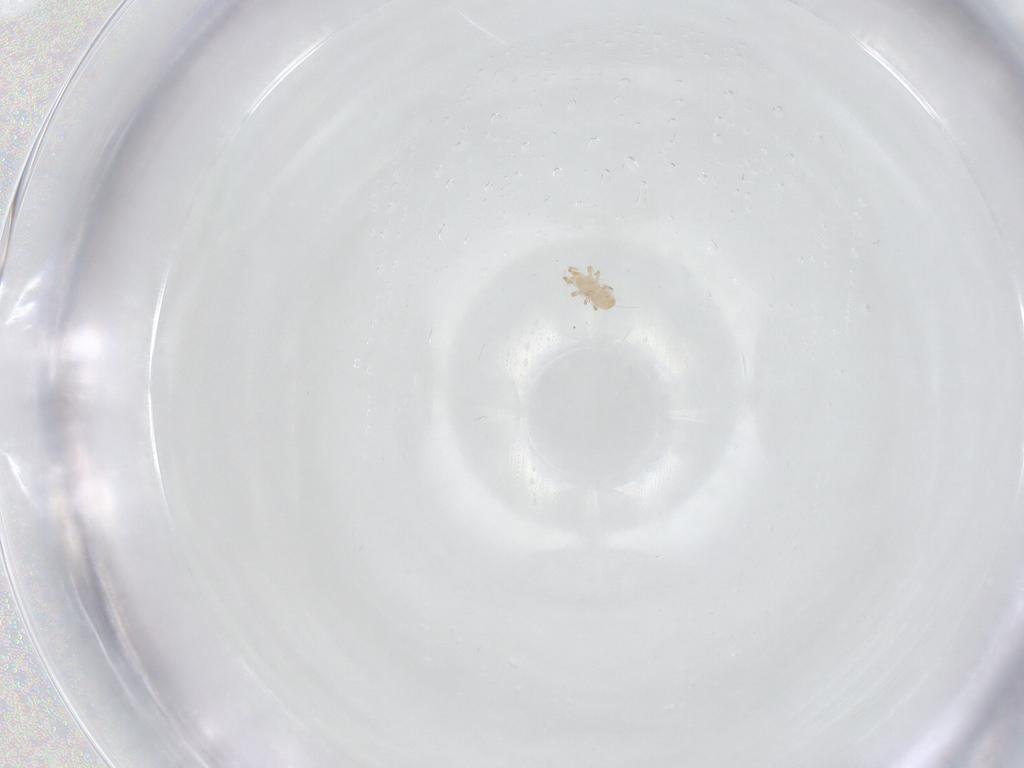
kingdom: Animalia
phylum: Arthropoda
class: Arachnida
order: Mesostigmata
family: Ascidae
